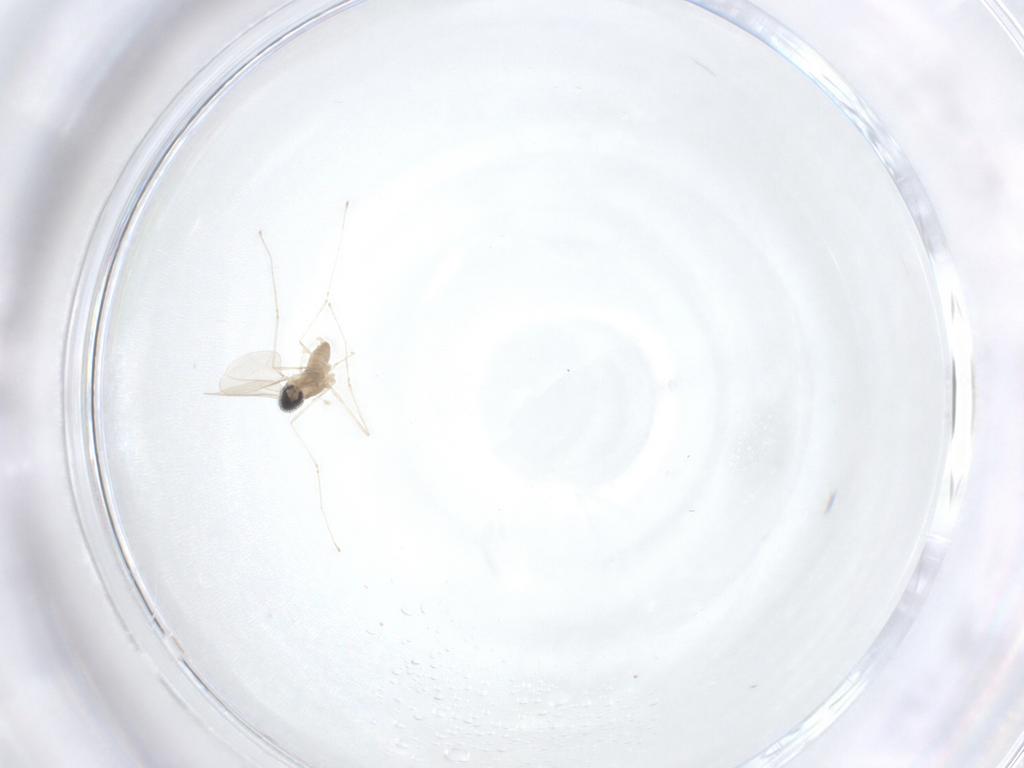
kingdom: Animalia
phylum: Arthropoda
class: Insecta
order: Diptera
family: Cecidomyiidae
